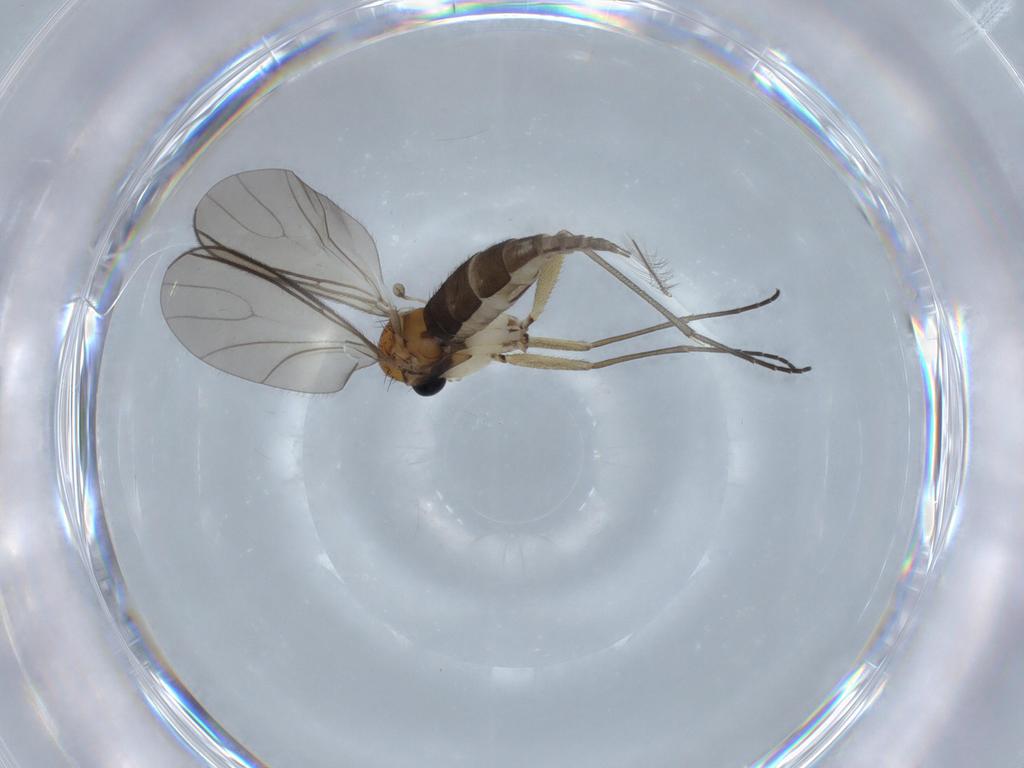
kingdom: Animalia
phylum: Arthropoda
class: Insecta
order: Diptera
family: Sciaridae
